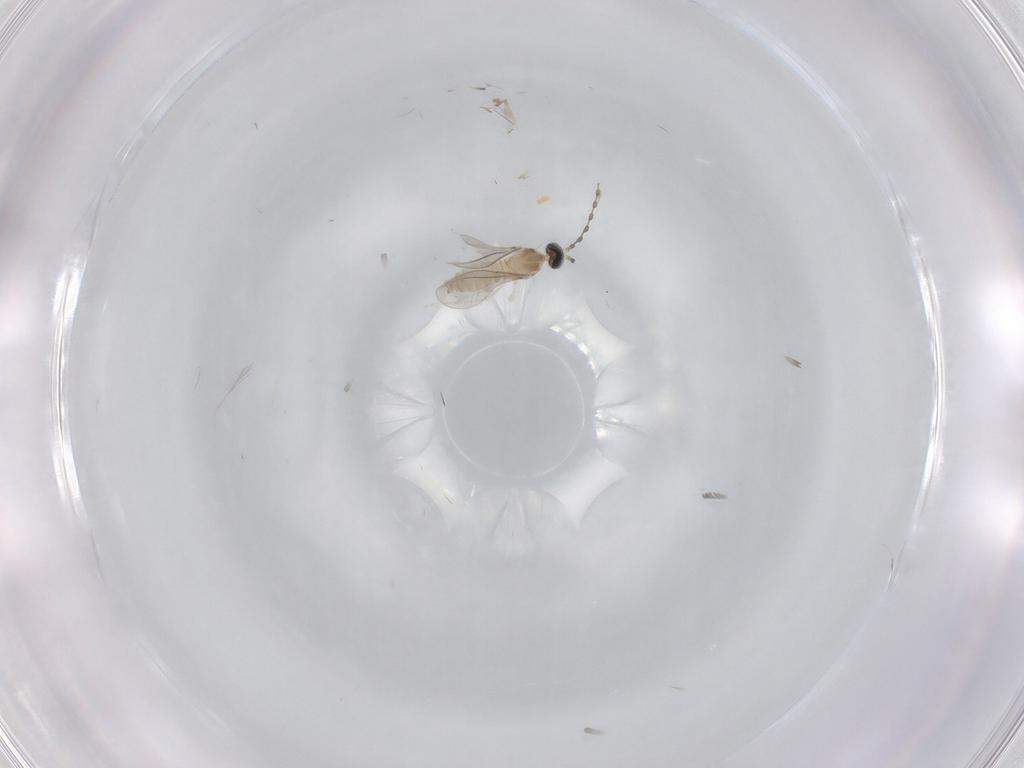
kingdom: Animalia
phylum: Arthropoda
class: Insecta
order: Diptera
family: Cecidomyiidae
